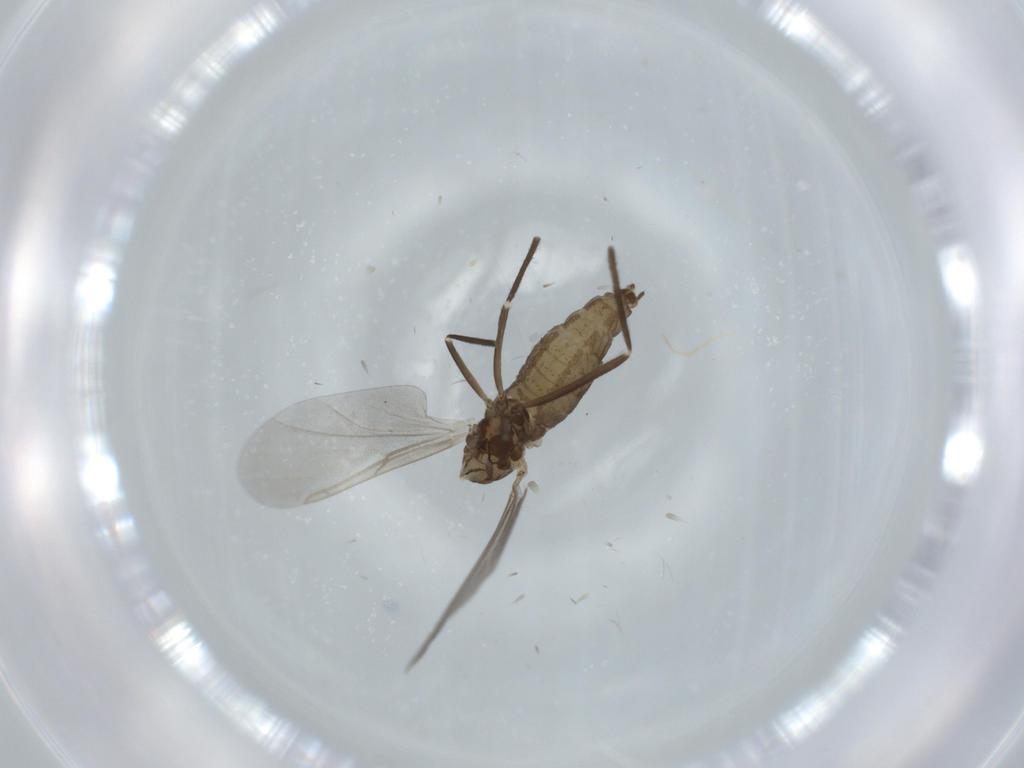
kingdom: Animalia
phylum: Arthropoda
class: Insecta
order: Diptera
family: Cecidomyiidae
